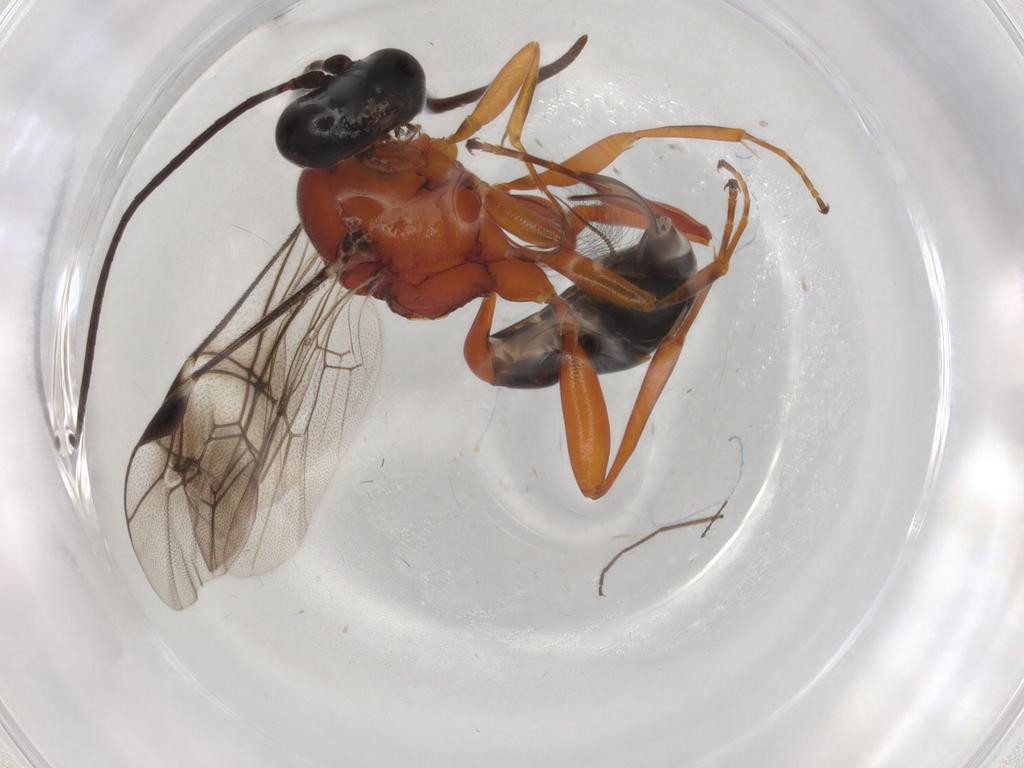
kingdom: Animalia
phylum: Arthropoda
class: Insecta
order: Hymenoptera
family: Ichneumonidae
